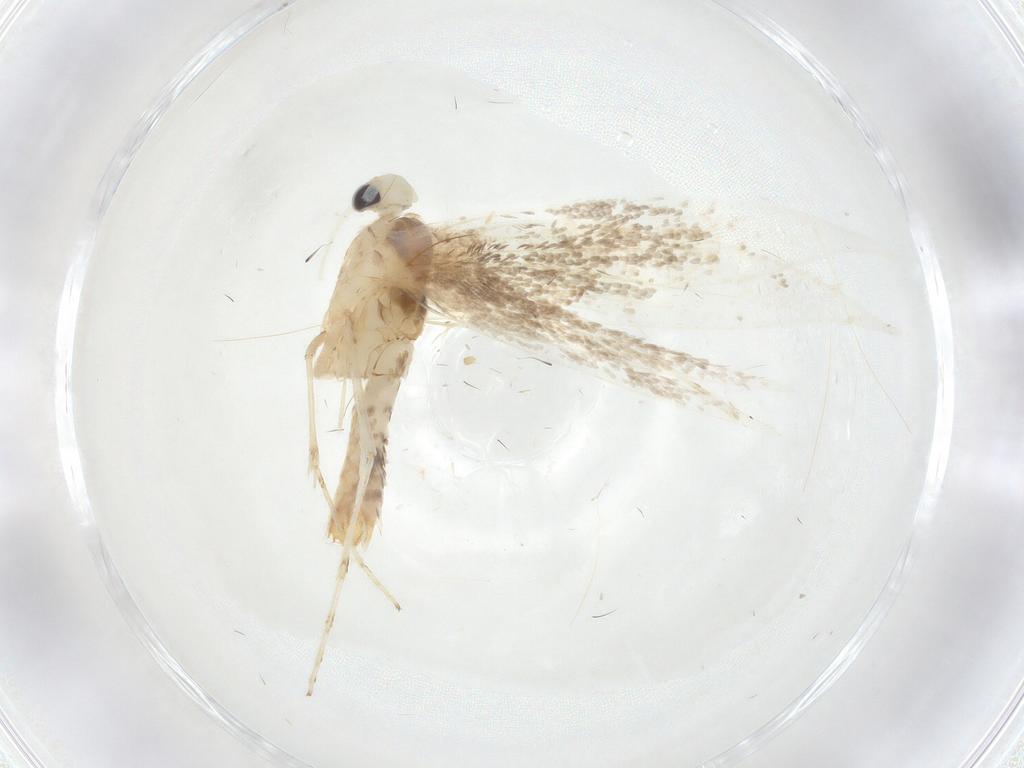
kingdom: Animalia
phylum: Arthropoda
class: Insecta
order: Lepidoptera
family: Gracillariidae
